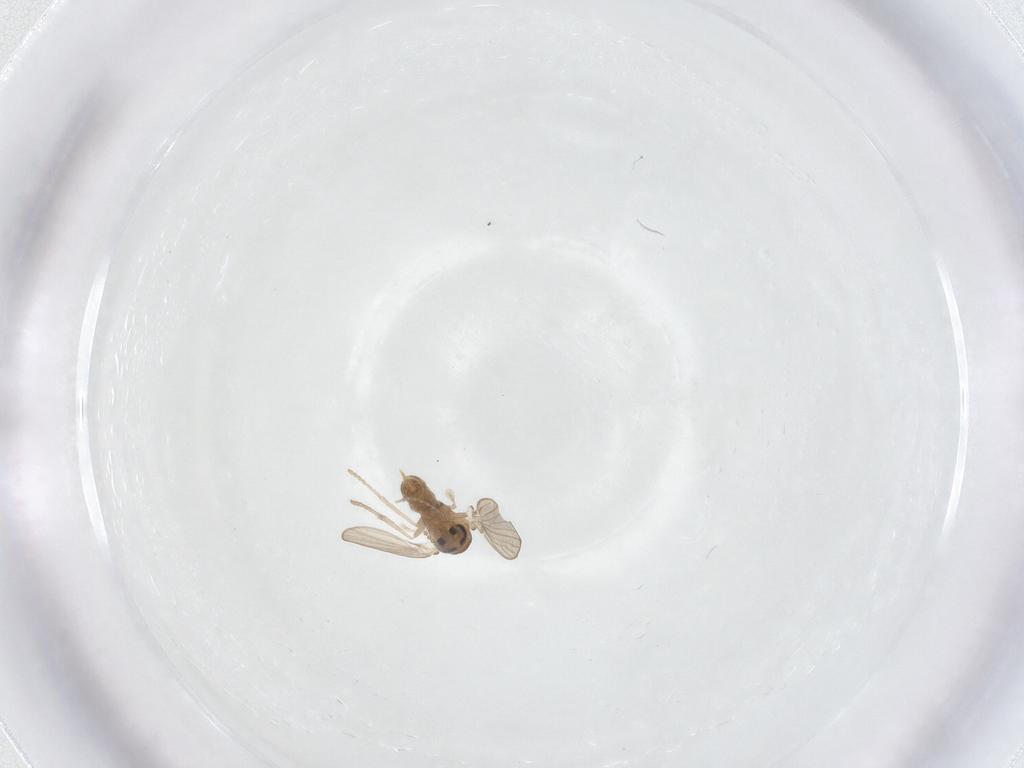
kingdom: Animalia
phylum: Arthropoda
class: Insecta
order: Diptera
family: Psychodidae
